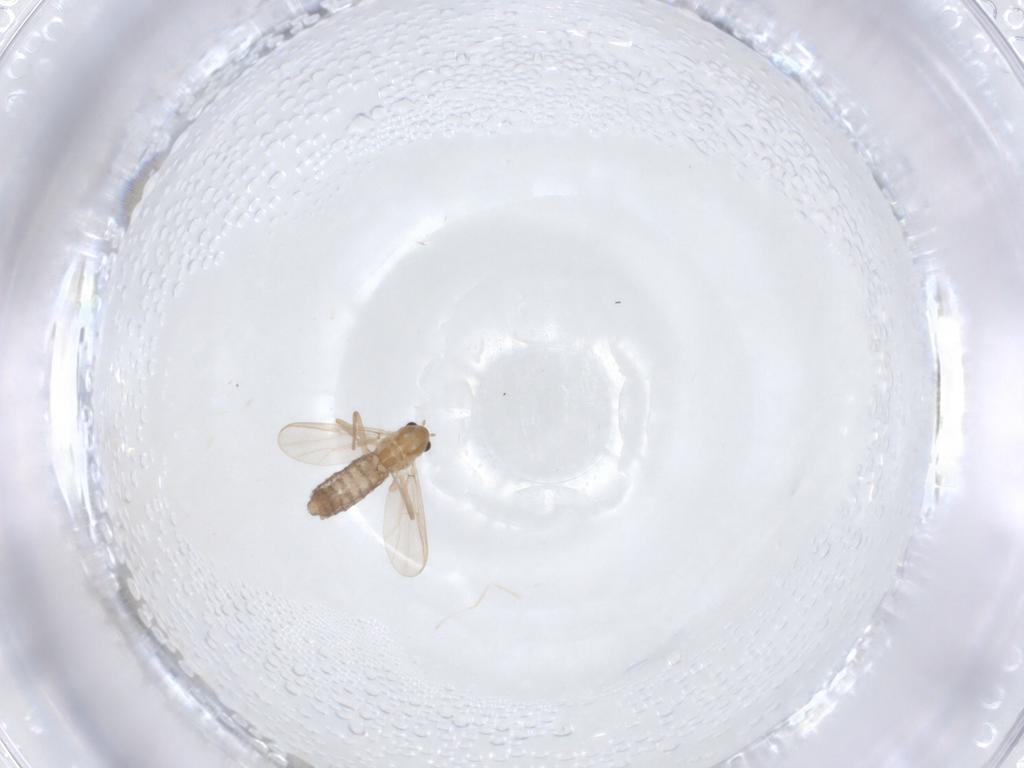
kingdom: Animalia
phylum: Arthropoda
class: Insecta
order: Diptera
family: Chironomidae
